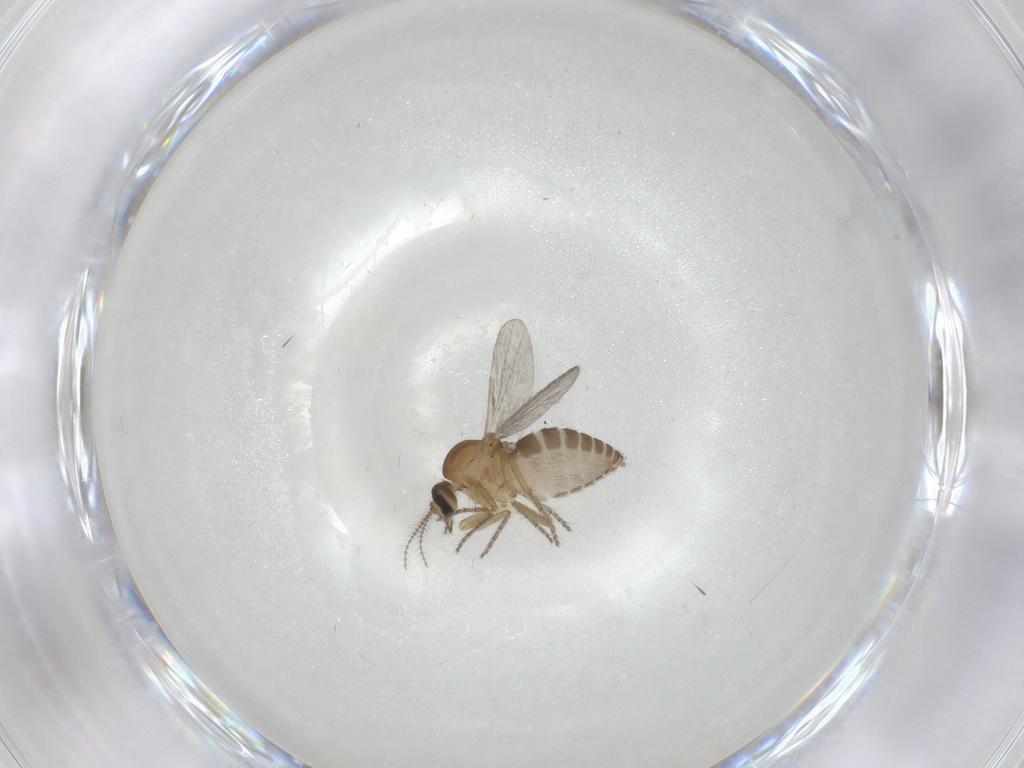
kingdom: Animalia
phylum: Arthropoda
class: Insecta
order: Diptera
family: Ceratopogonidae
